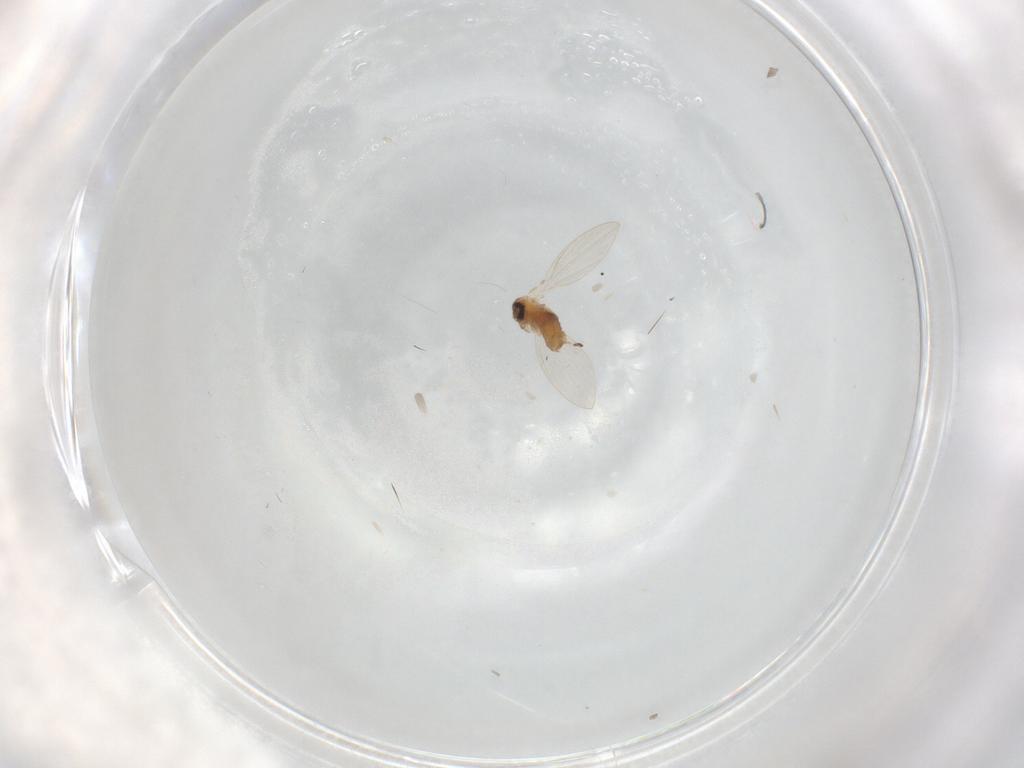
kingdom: Animalia
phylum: Arthropoda
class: Insecta
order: Diptera
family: Psychodidae
